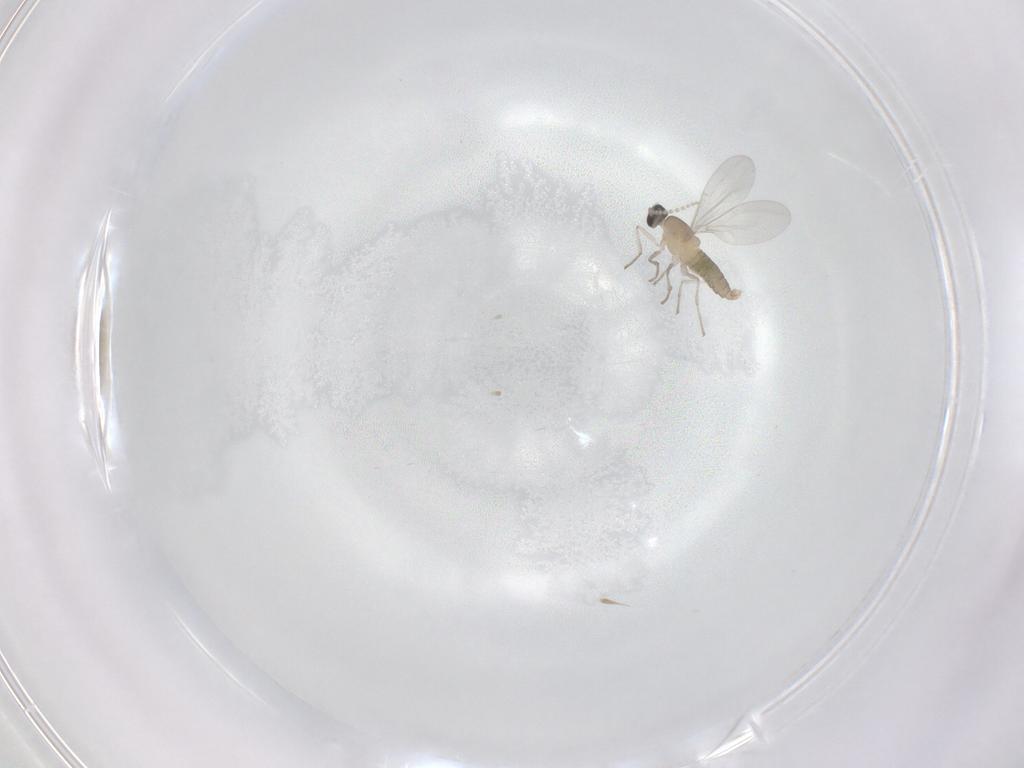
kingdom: Animalia
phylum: Arthropoda
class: Insecta
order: Diptera
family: Cecidomyiidae
